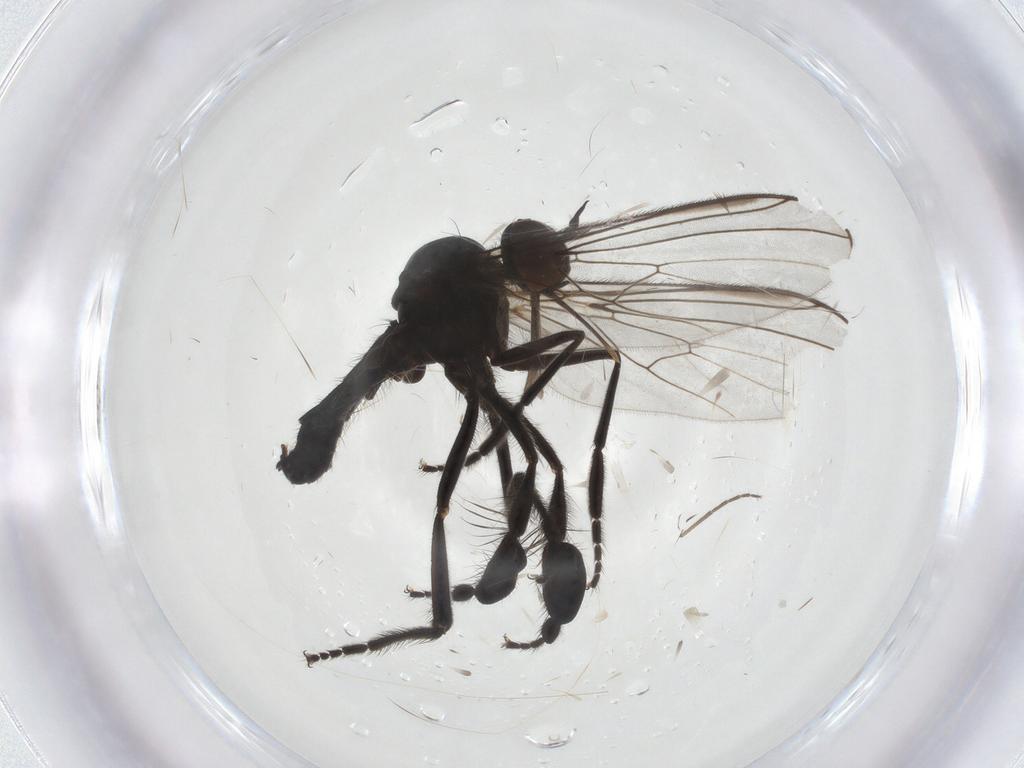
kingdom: Animalia
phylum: Arthropoda
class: Insecta
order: Diptera
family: Empididae
